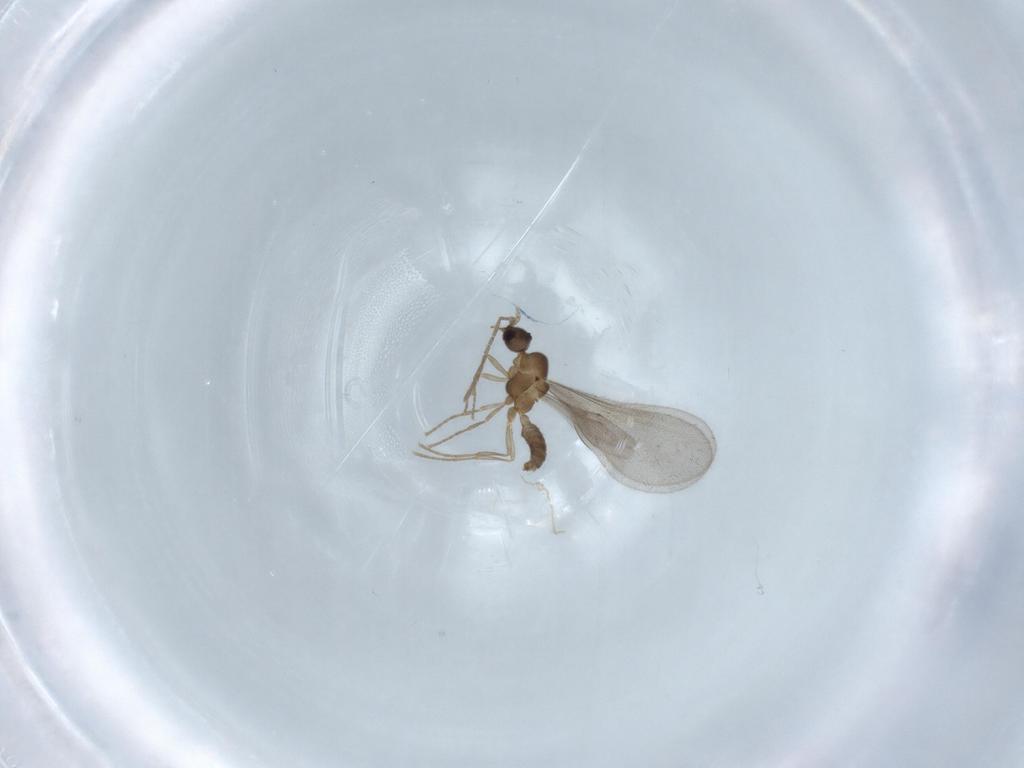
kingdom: Animalia
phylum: Arthropoda
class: Insecta
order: Hymenoptera
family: Formicidae
